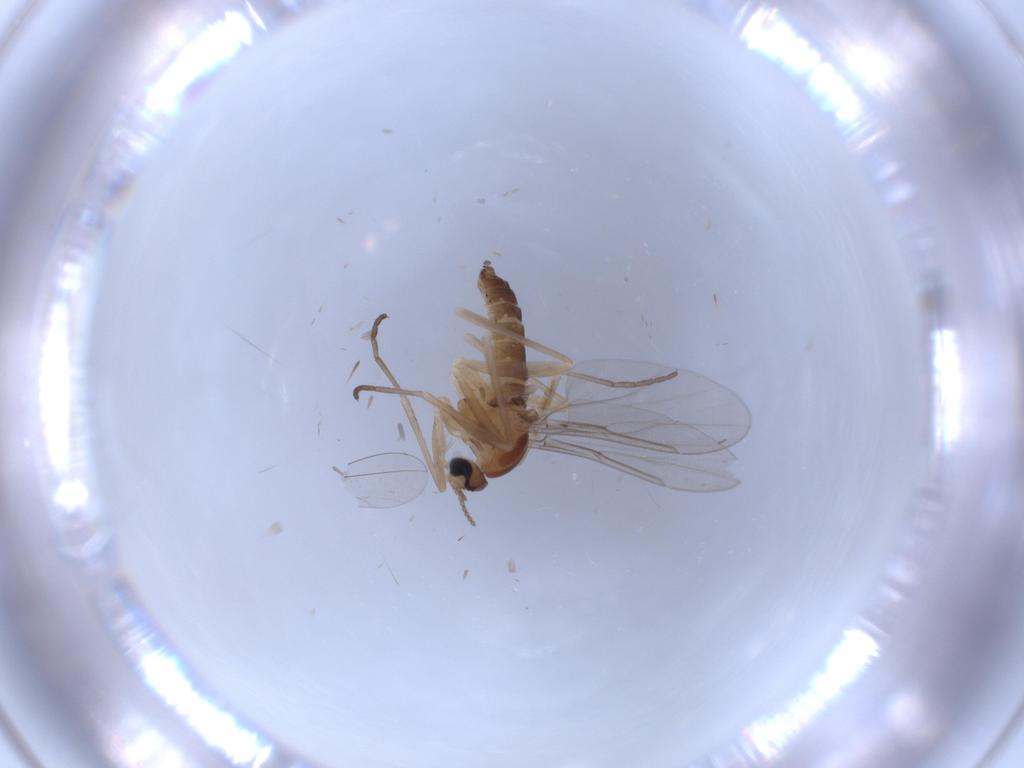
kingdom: Animalia
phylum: Arthropoda
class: Insecta
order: Diptera
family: Cecidomyiidae
